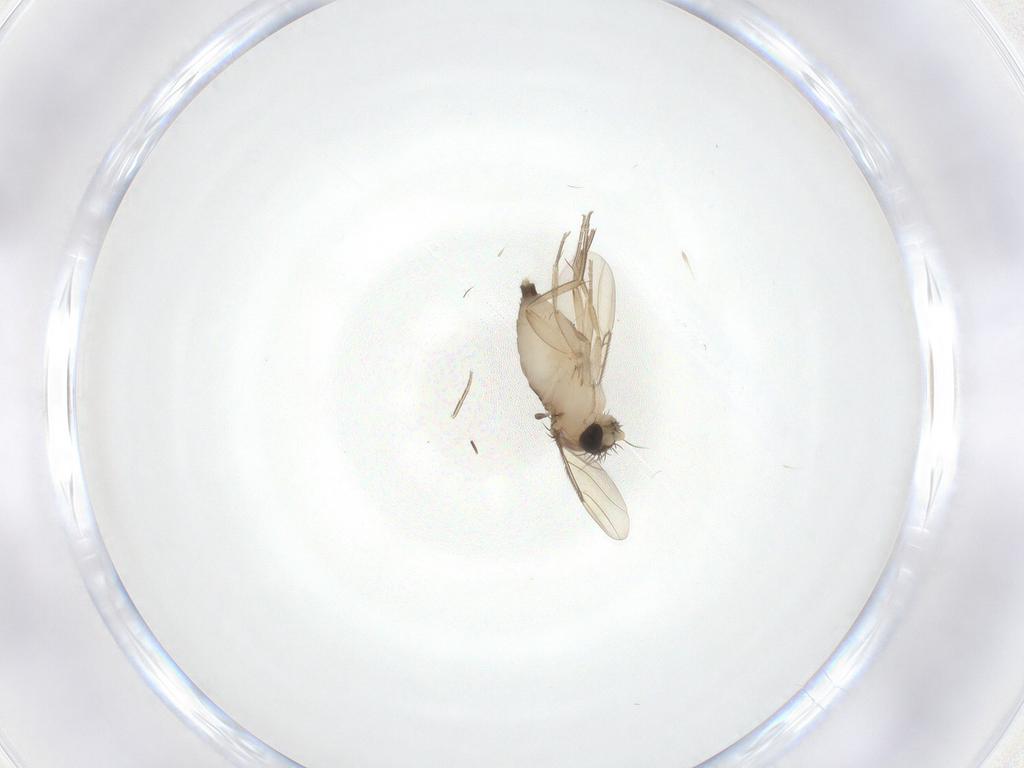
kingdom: Animalia
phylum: Arthropoda
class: Insecta
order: Diptera
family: Phoridae
